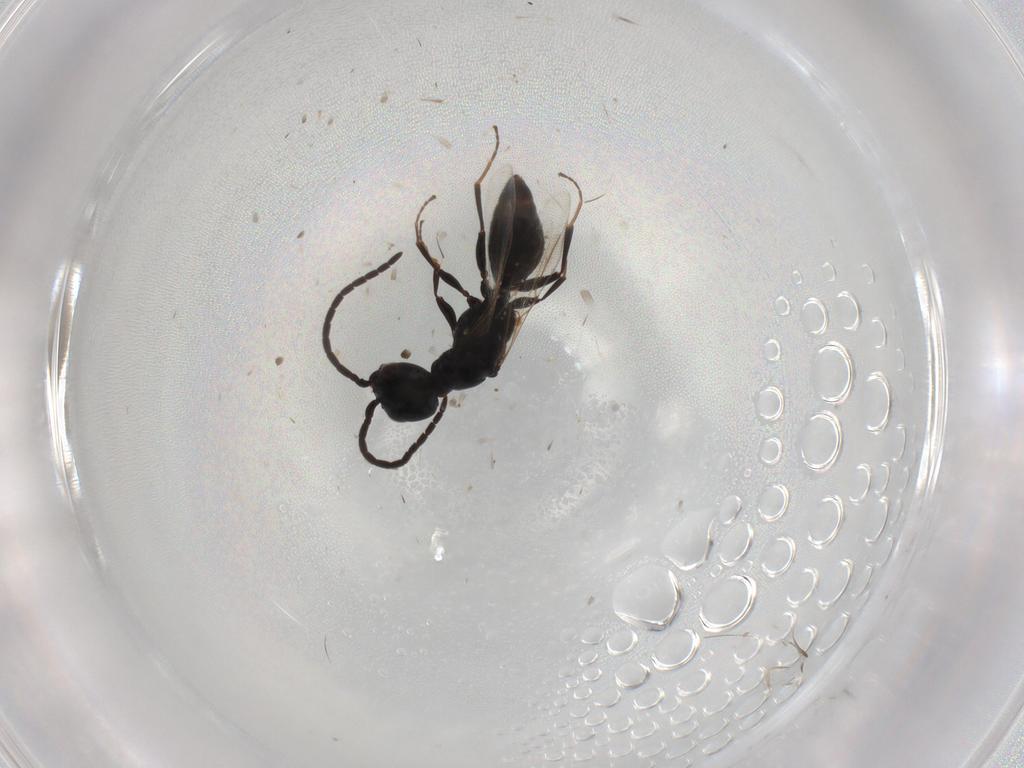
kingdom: Animalia
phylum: Arthropoda
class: Insecta
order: Hymenoptera
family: Scelionidae
